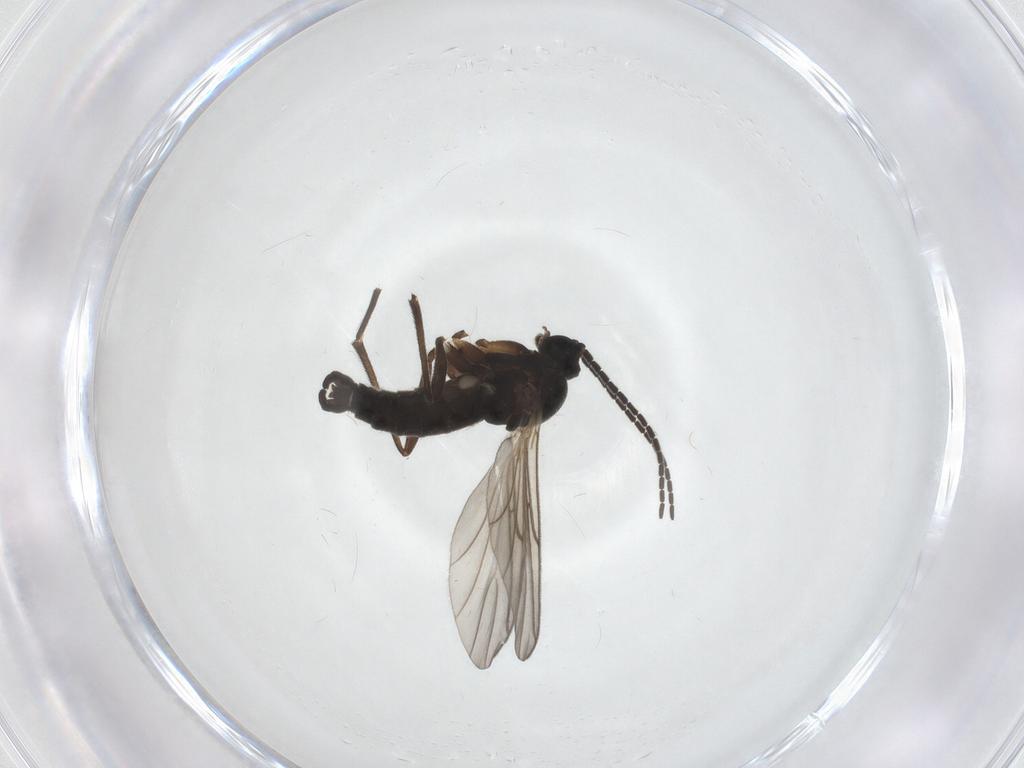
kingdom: Animalia
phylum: Arthropoda
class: Insecta
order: Diptera
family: Sciaridae
